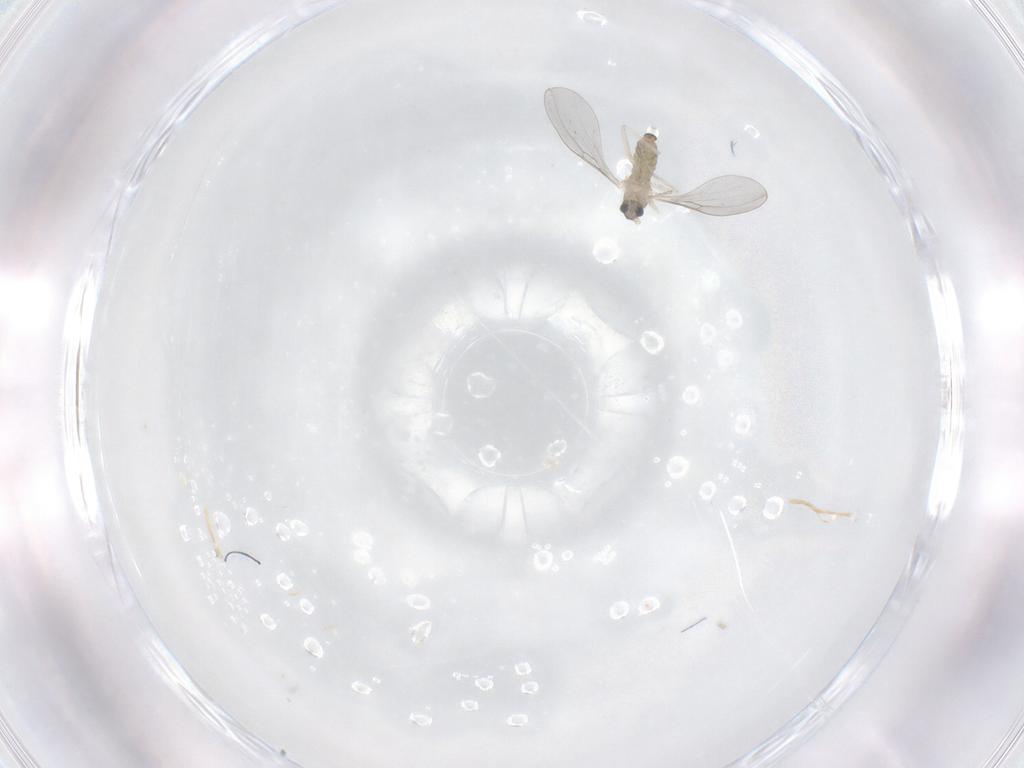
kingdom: Animalia
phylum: Arthropoda
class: Insecta
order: Diptera
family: Cecidomyiidae
